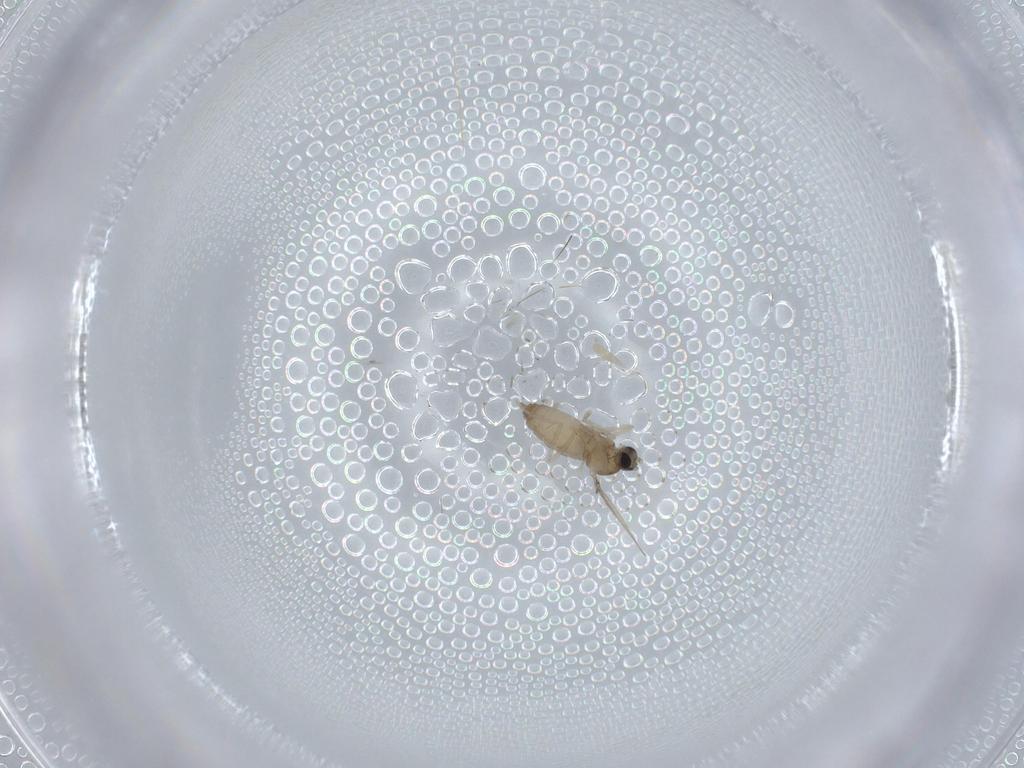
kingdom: Animalia
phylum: Arthropoda
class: Insecta
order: Diptera
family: Cecidomyiidae
